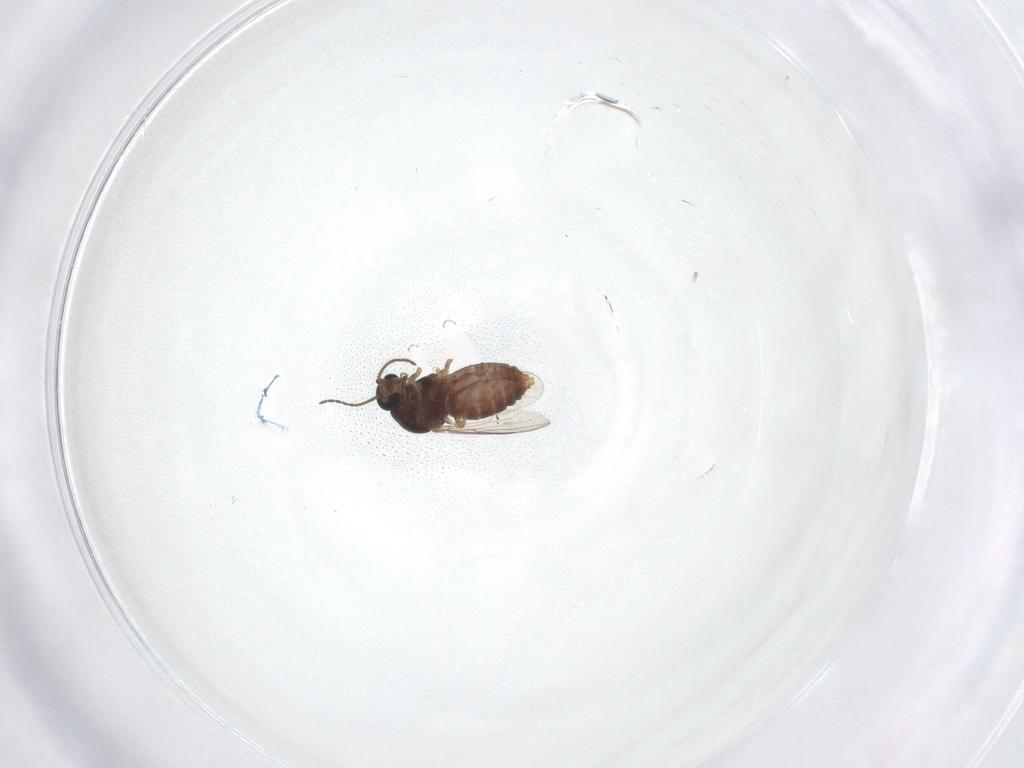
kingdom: Animalia
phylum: Arthropoda
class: Insecta
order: Diptera
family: Ceratopogonidae
